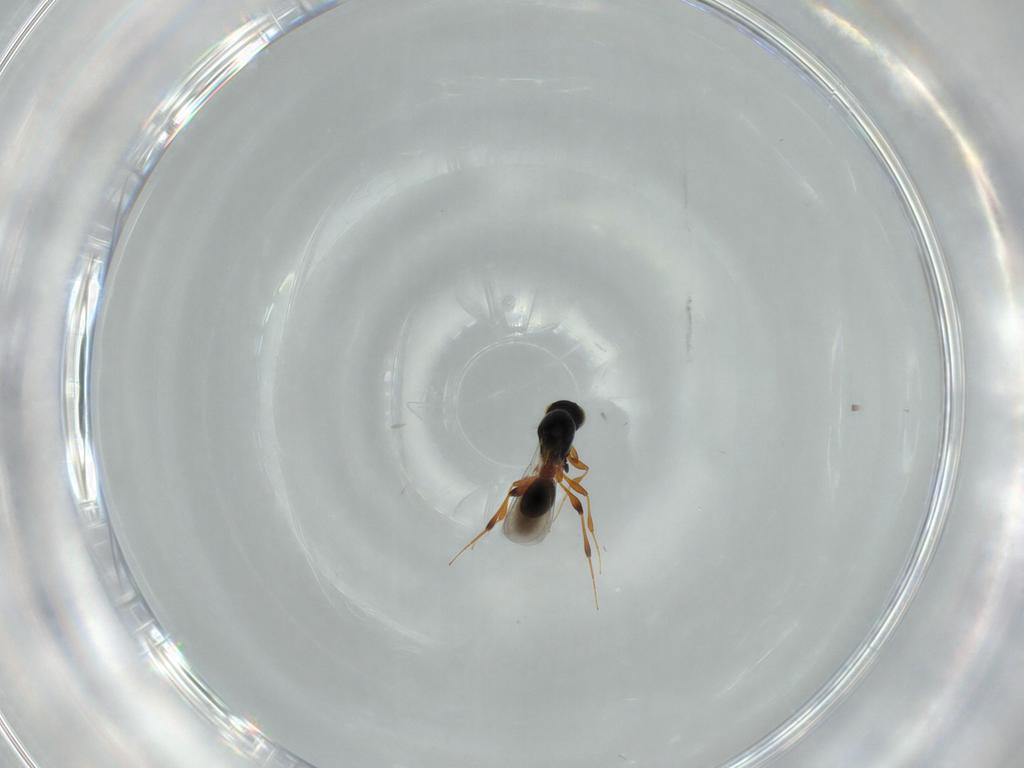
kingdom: Animalia
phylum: Arthropoda
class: Insecta
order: Hymenoptera
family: Platygastridae
